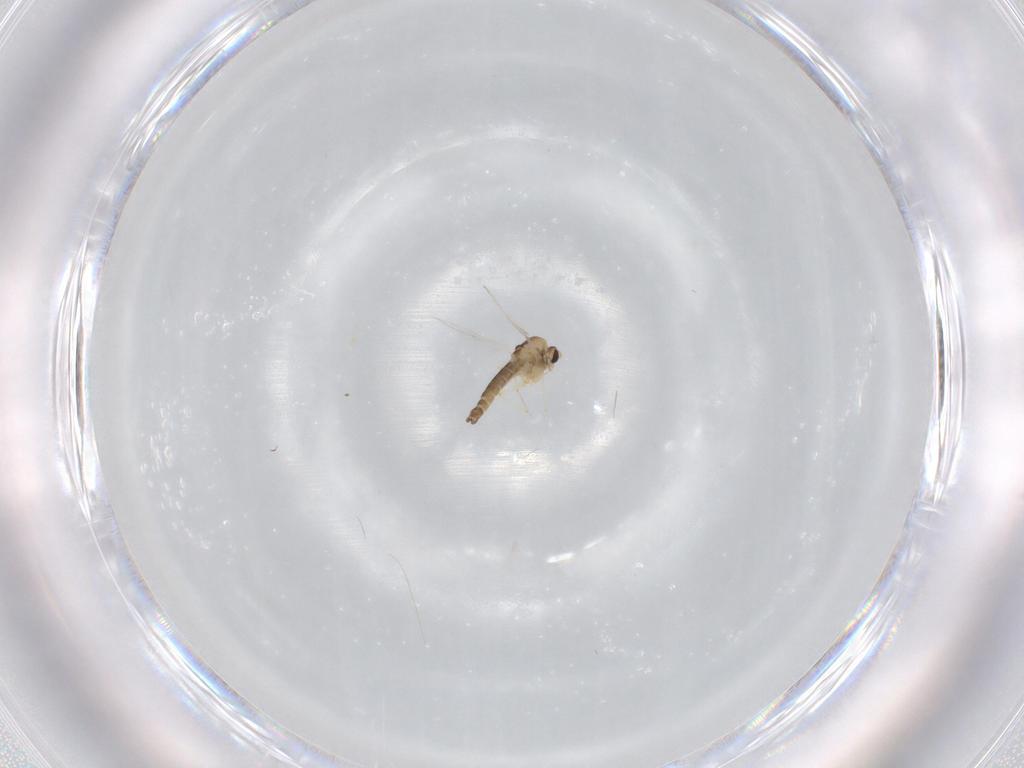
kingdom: Animalia
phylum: Arthropoda
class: Insecta
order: Diptera
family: Chironomidae
